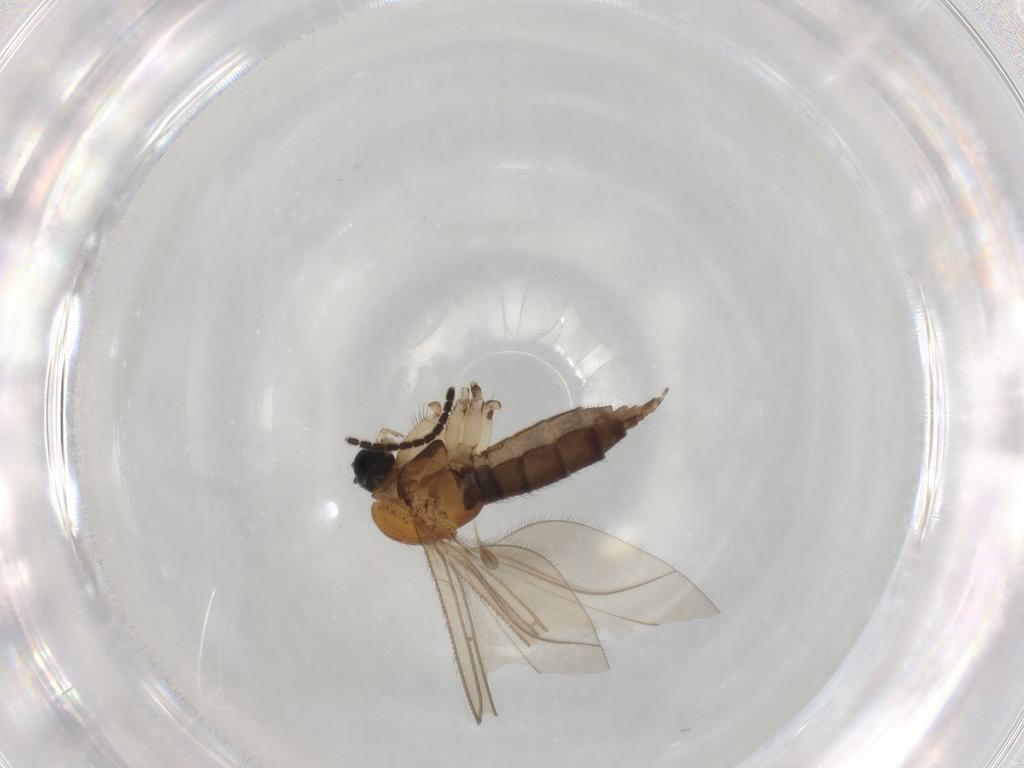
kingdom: Animalia
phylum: Arthropoda
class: Insecta
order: Diptera
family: Sciaridae
